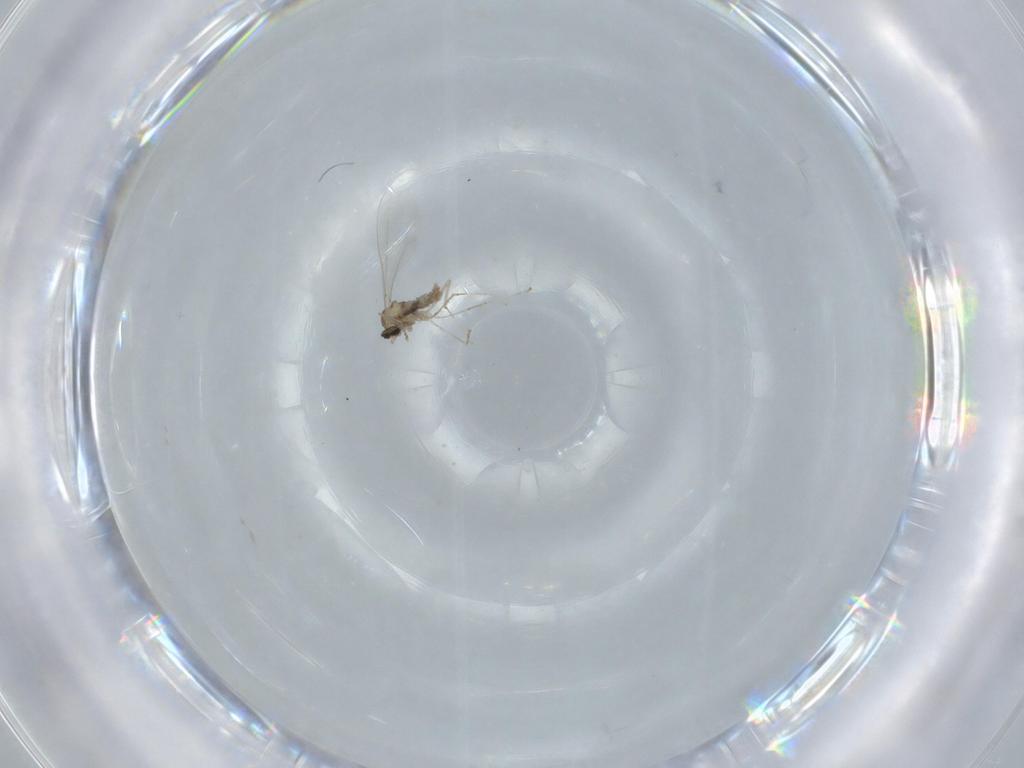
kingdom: Animalia
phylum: Arthropoda
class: Insecta
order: Diptera
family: Cecidomyiidae
